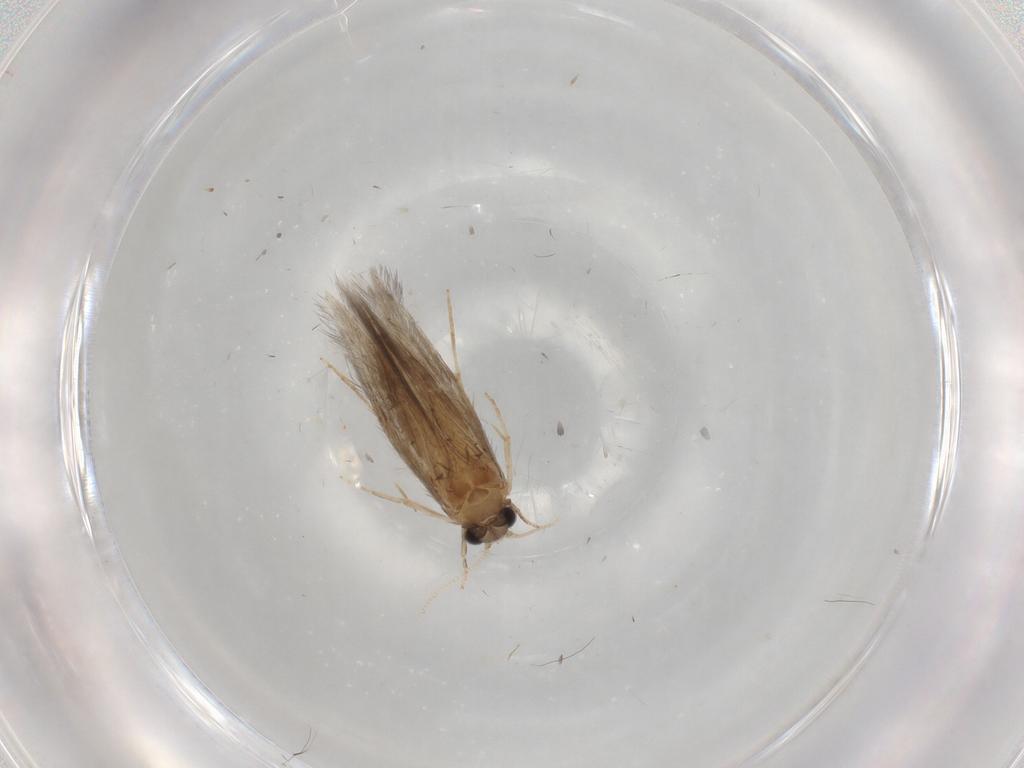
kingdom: Animalia
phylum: Arthropoda
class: Insecta
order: Trichoptera
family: Hydroptilidae
